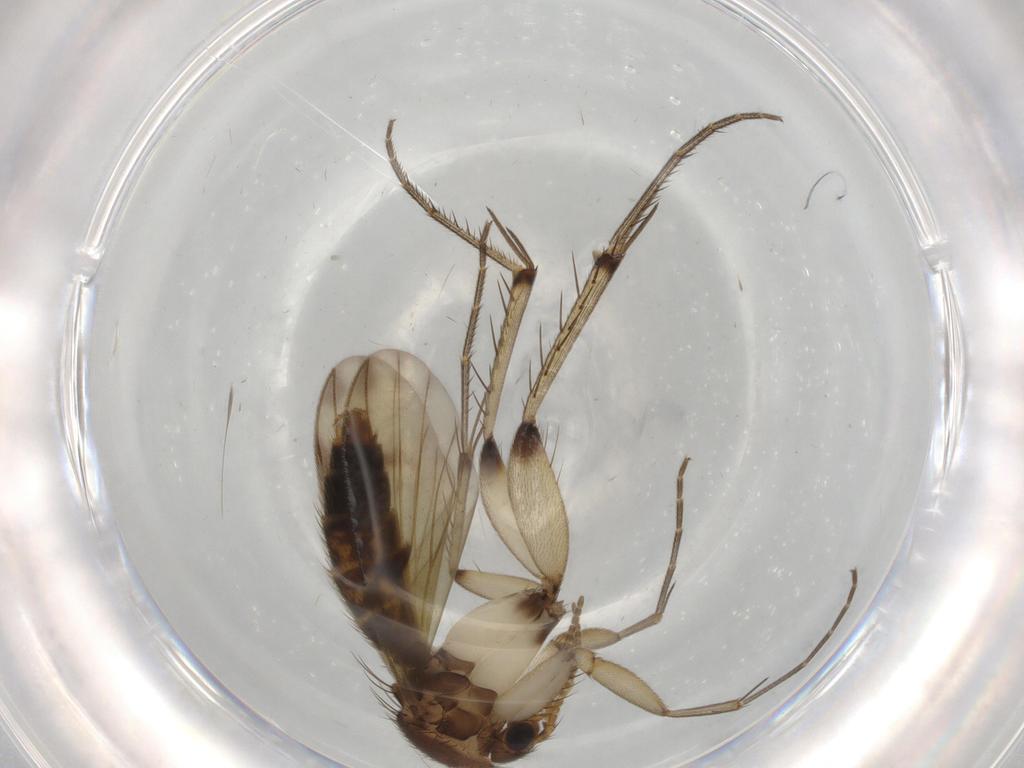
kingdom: Animalia
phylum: Arthropoda
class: Insecta
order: Diptera
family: Mycetophilidae
